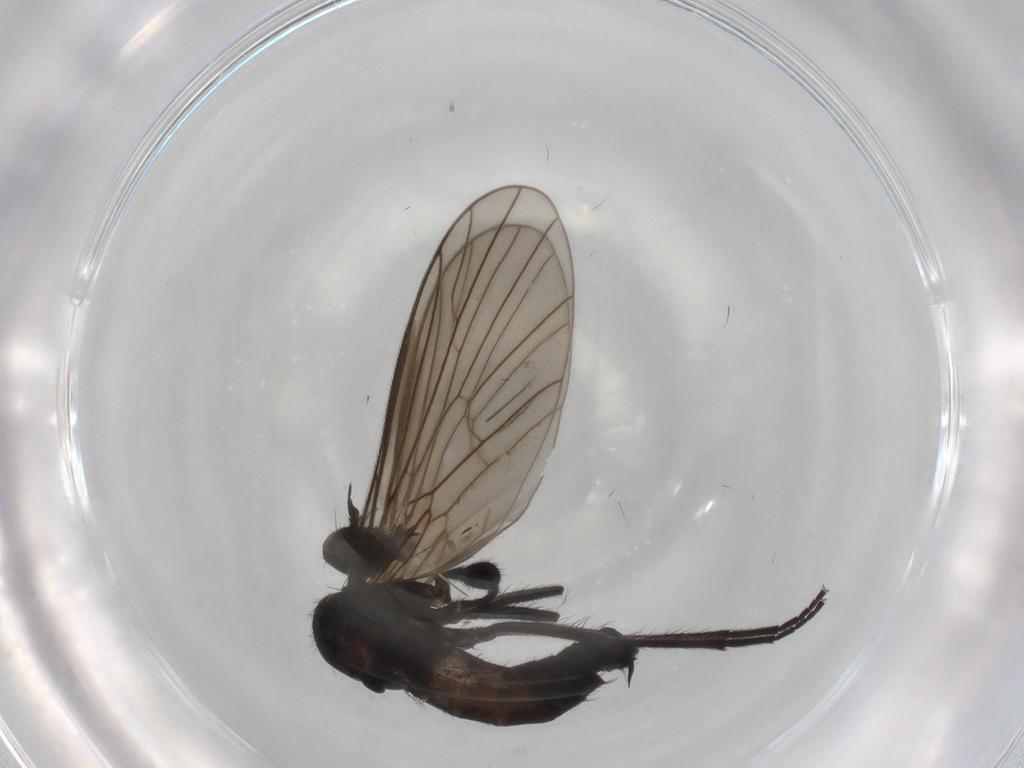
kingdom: Animalia
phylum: Arthropoda
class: Insecta
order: Diptera
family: Empididae
